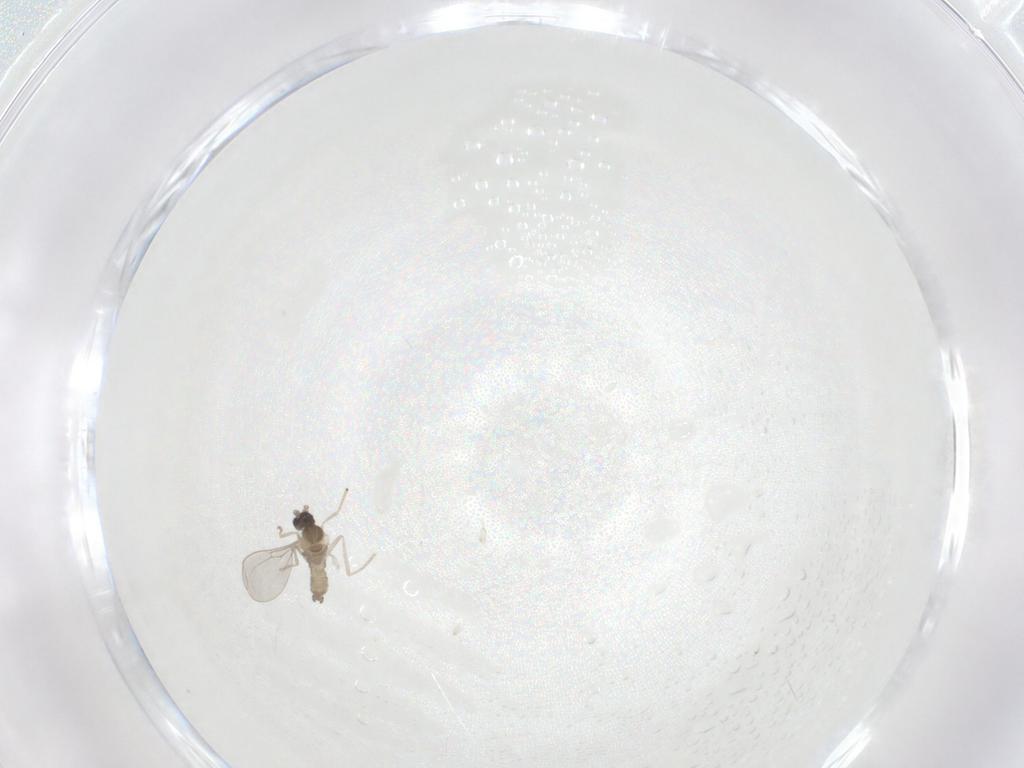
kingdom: Animalia
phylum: Arthropoda
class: Insecta
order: Diptera
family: Cecidomyiidae
